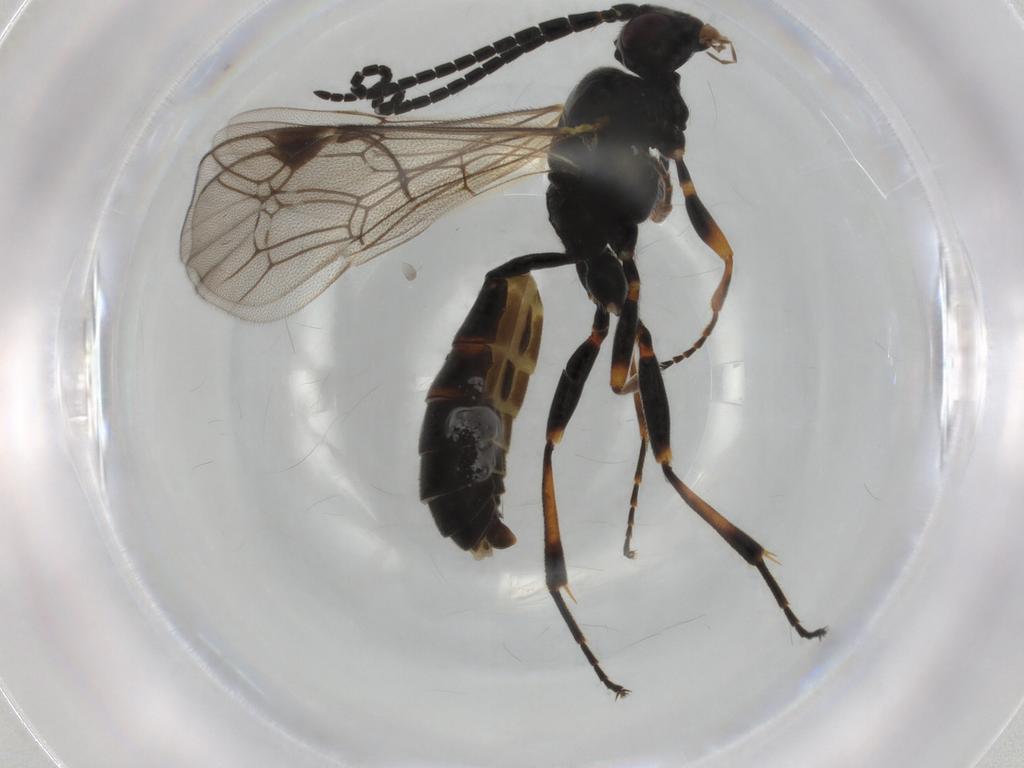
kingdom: Animalia
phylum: Arthropoda
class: Insecta
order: Hymenoptera
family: Ichneumonidae
